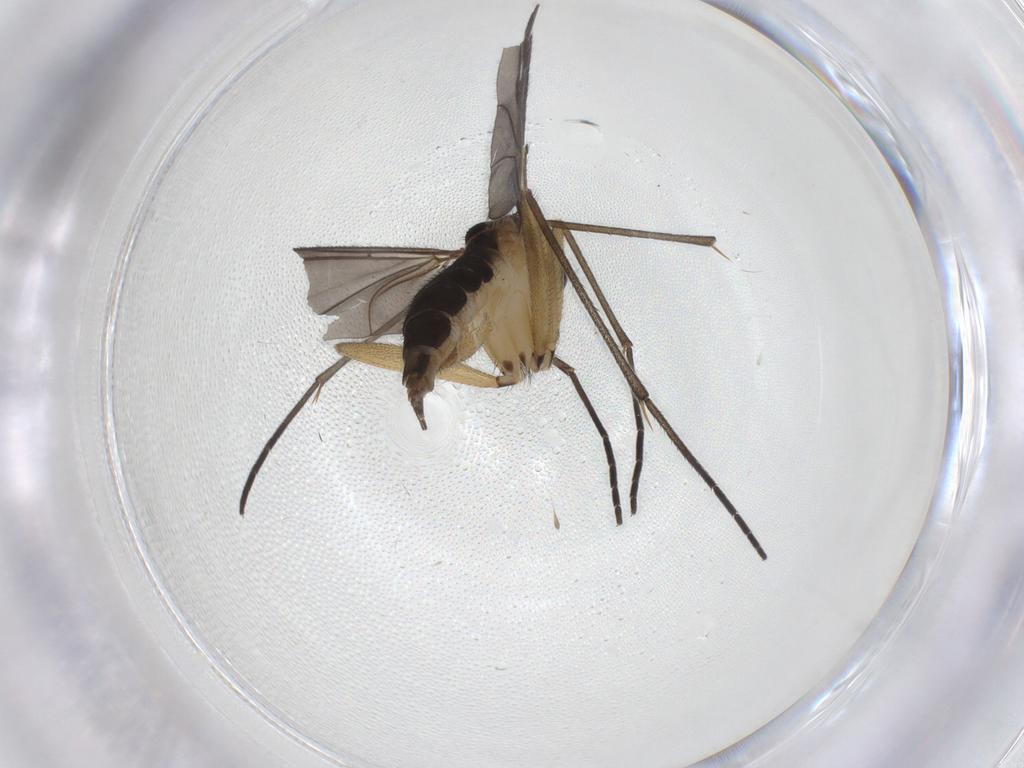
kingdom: Animalia
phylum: Arthropoda
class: Insecta
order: Diptera
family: Sciaridae
